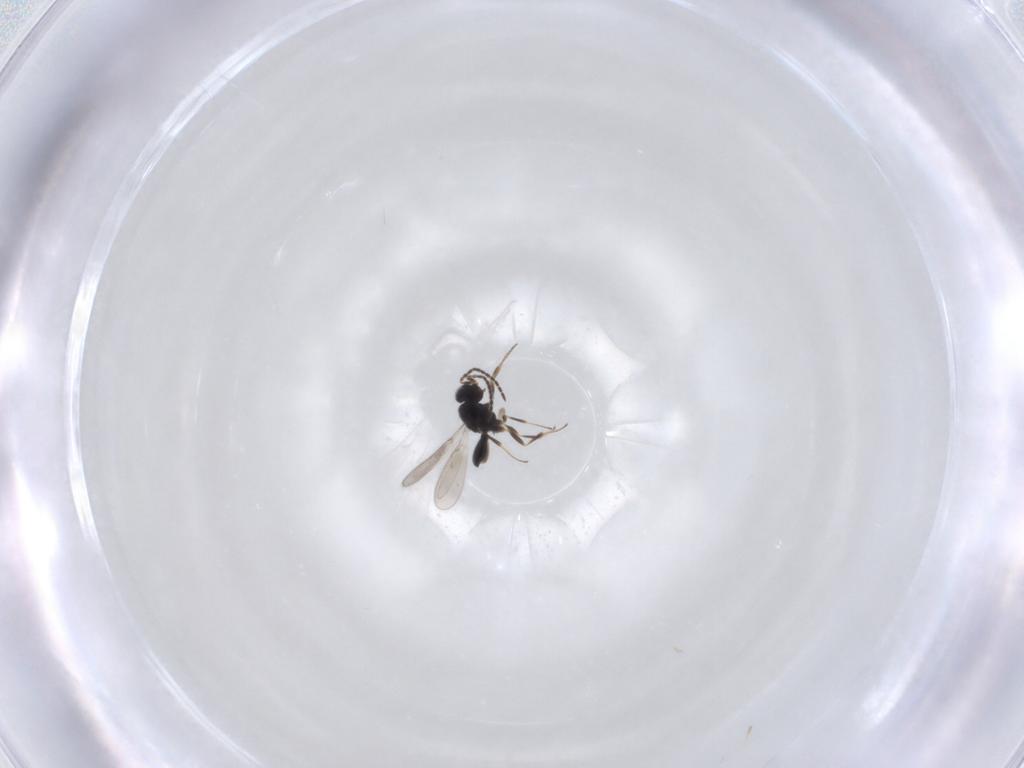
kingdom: Animalia
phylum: Arthropoda
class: Insecta
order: Hymenoptera
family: Scelionidae
